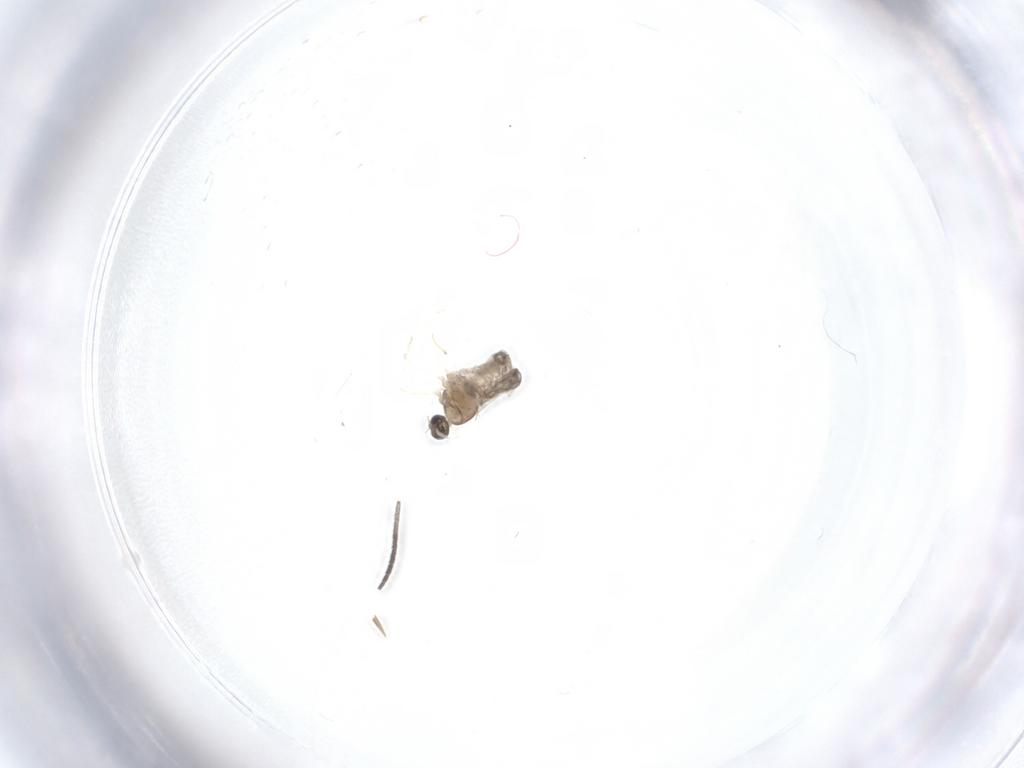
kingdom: Animalia
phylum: Arthropoda
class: Insecta
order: Diptera
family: Cecidomyiidae
